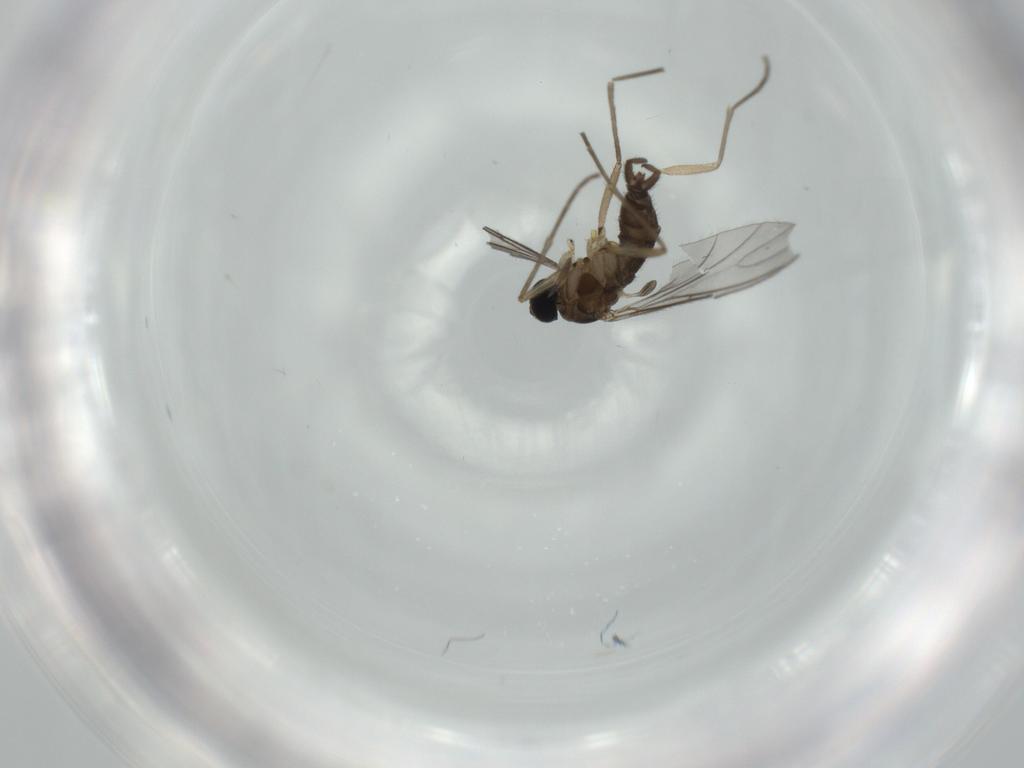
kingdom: Animalia
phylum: Arthropoda
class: Insecta
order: Diptera
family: Sciaridae
